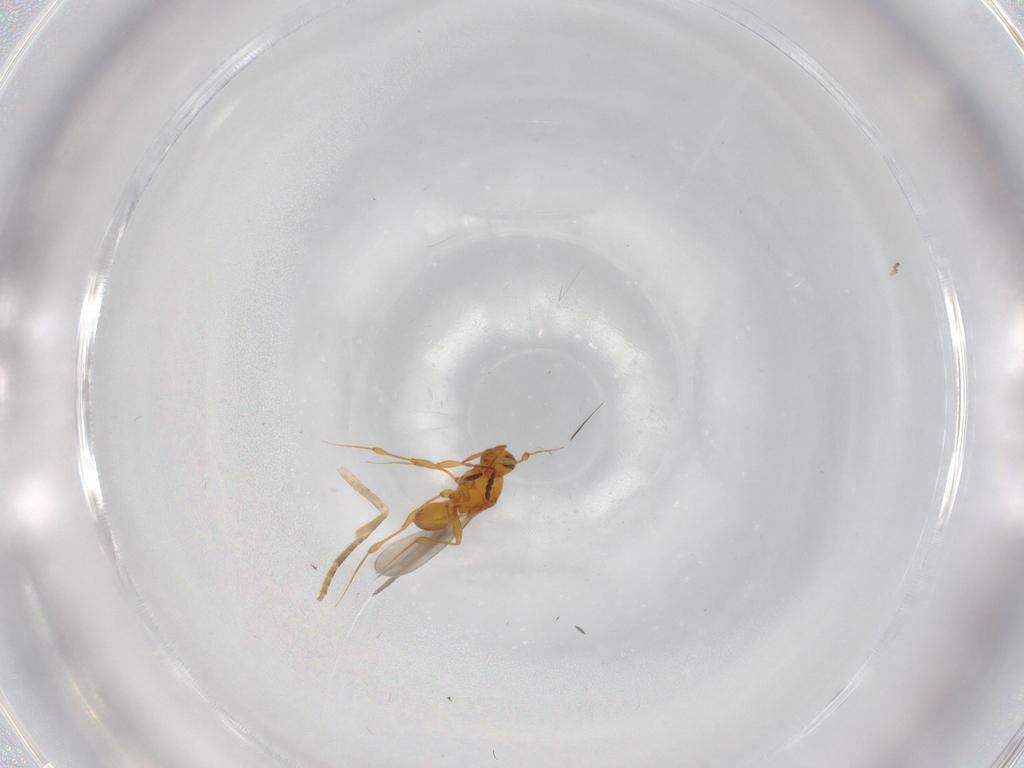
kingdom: Animalia
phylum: Arthropoda
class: Insecta
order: Hymenoptera
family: Platygastridae
